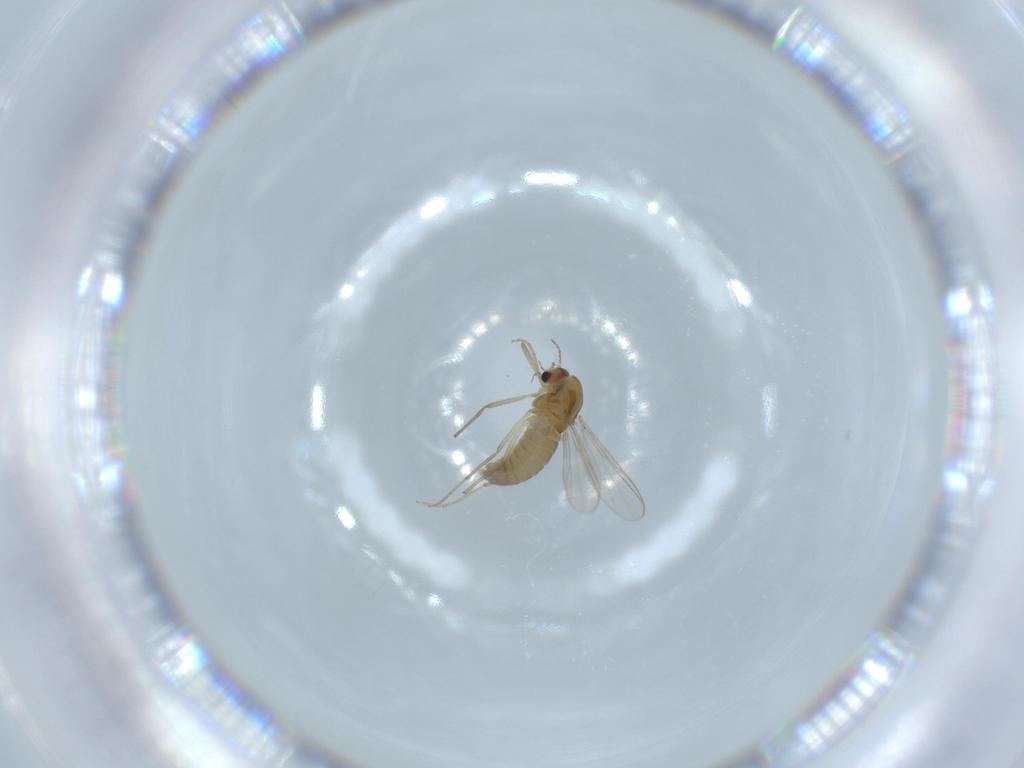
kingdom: Animalia
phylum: Arthropoda
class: Insecta
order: Diptera
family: Chironomidae
